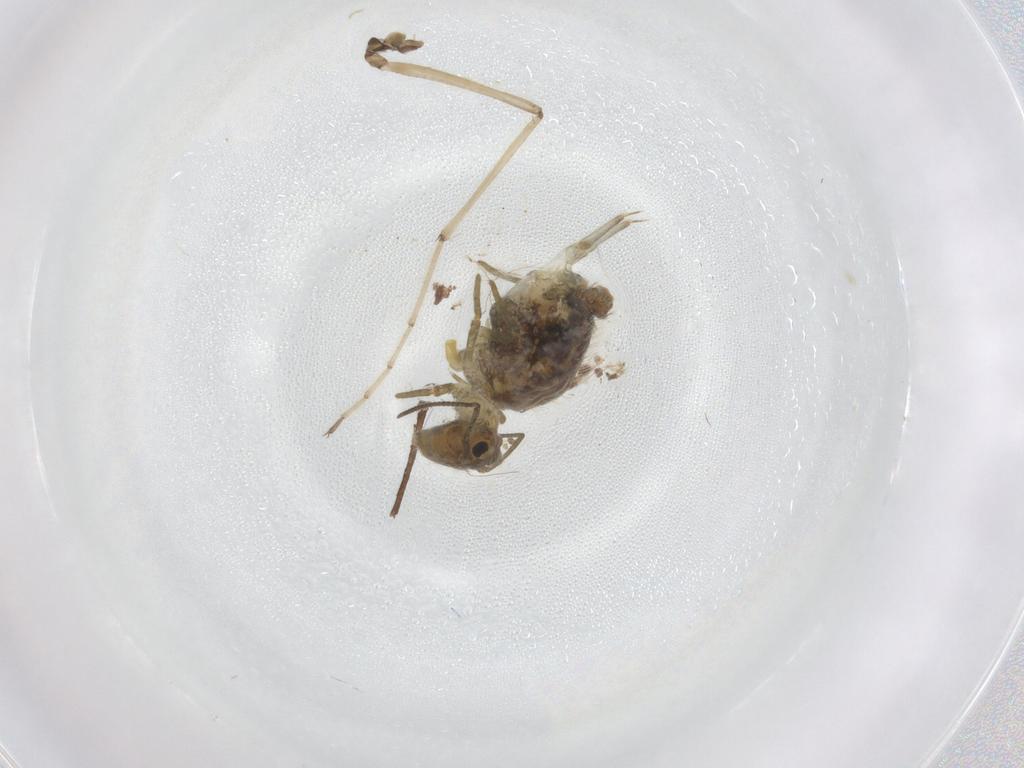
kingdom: Animalia
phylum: Arthropoda
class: Collembola
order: Symphypleona
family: Sminthuridae
